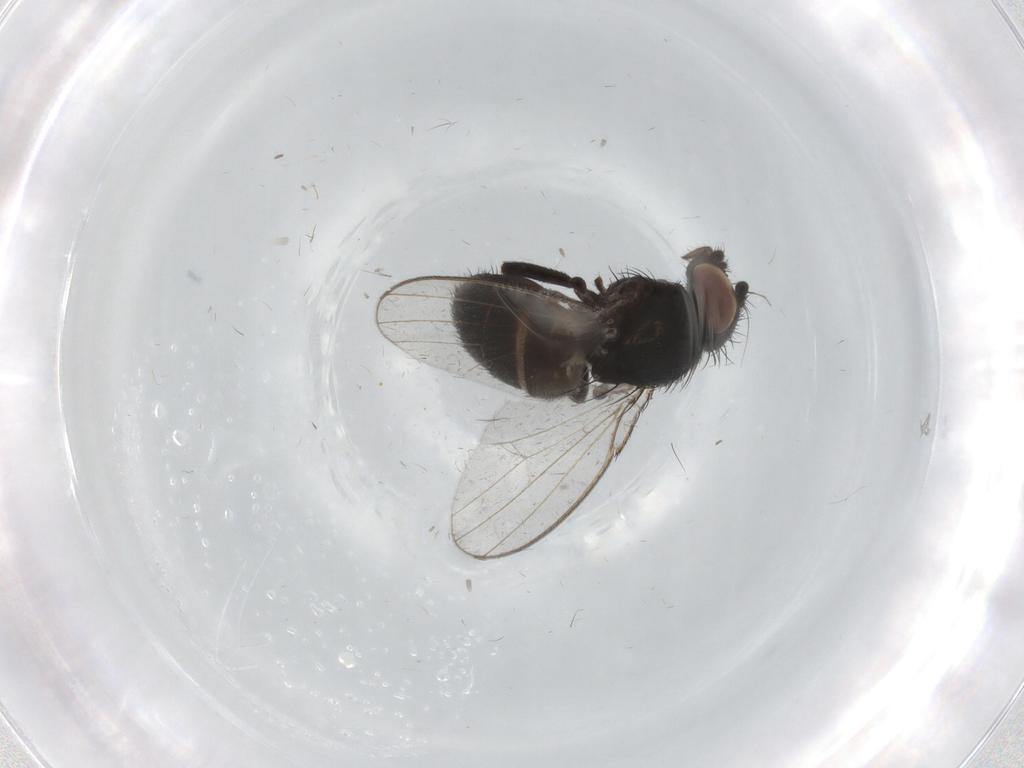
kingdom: Animalia
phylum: Arthropoda
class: Insecta
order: Diptera
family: Milichiidae
